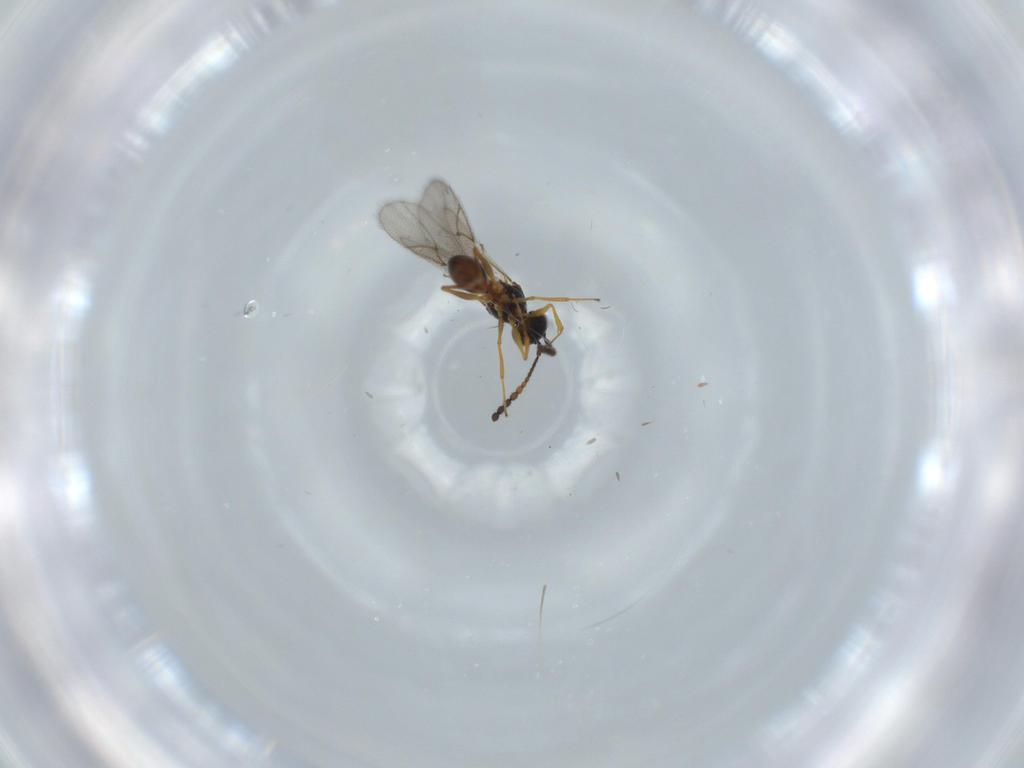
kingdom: Animalia
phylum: Arthropoda
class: Insecta
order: Hymenoptera
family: Figitidae
